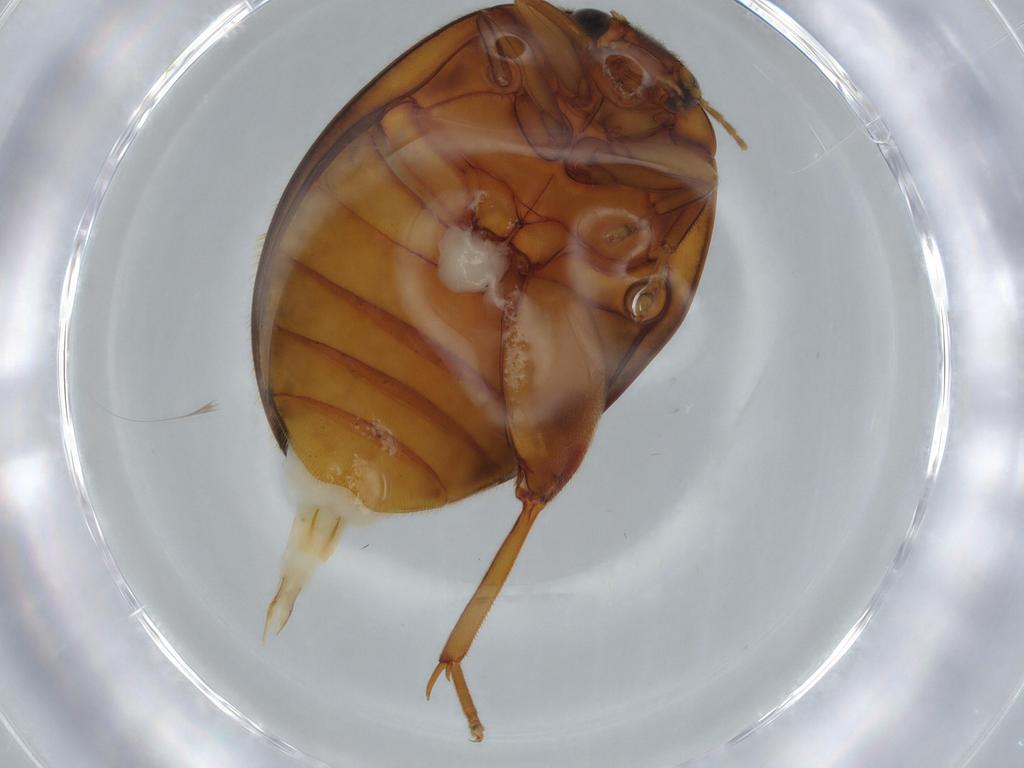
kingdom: Animalia
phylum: Arthropoda
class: Insecta
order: Coleoptera
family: Scirtidae
